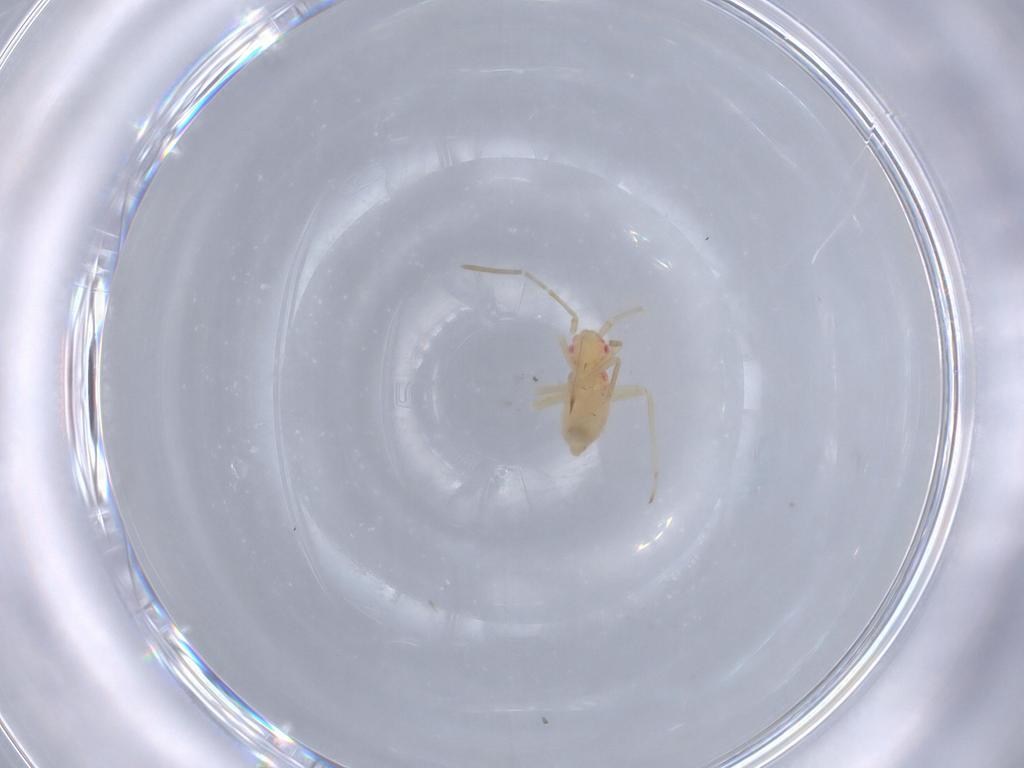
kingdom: Animalia
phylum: Arthropoda
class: Insecta
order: Hemiptera
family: Miridae
